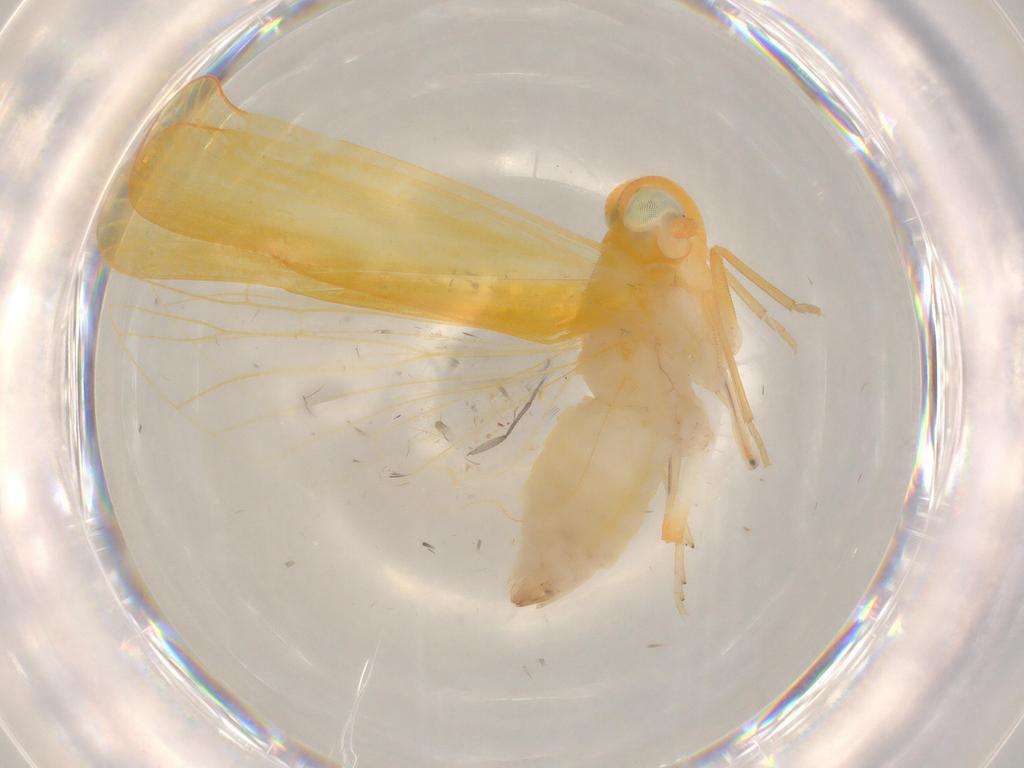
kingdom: Animalia
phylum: Arthropoda
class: Insecta
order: Hemiptera
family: Derbidae
